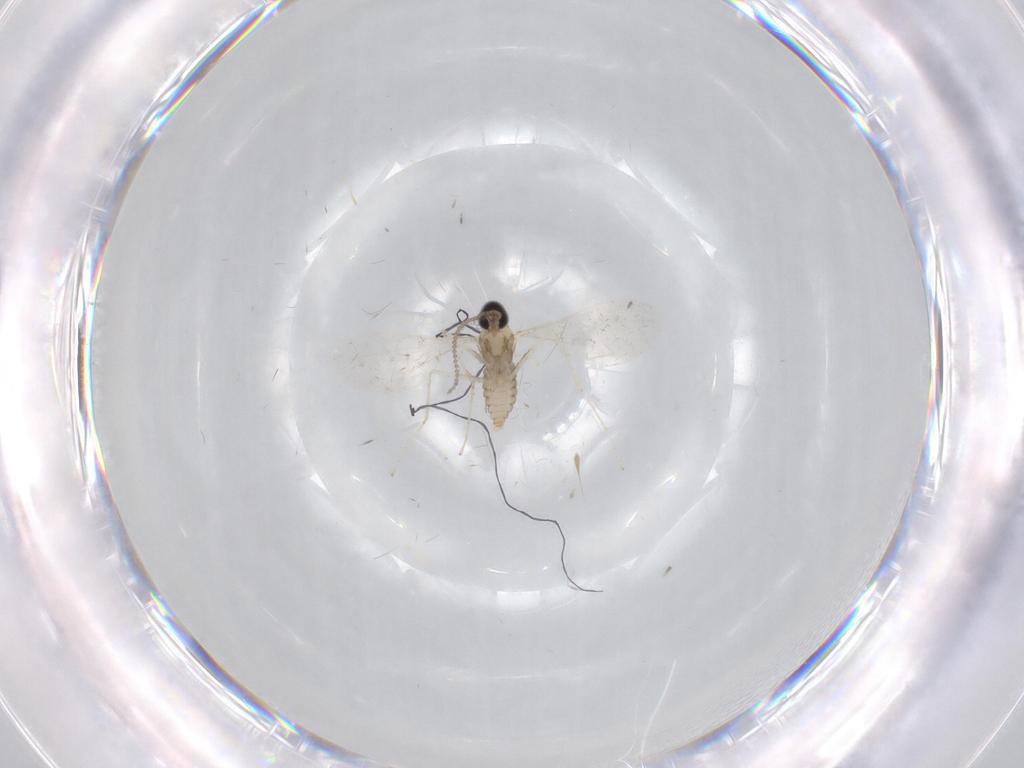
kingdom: Animalia
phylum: Arthropoda
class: Insecta
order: Diptera
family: Cecidomyiidae
